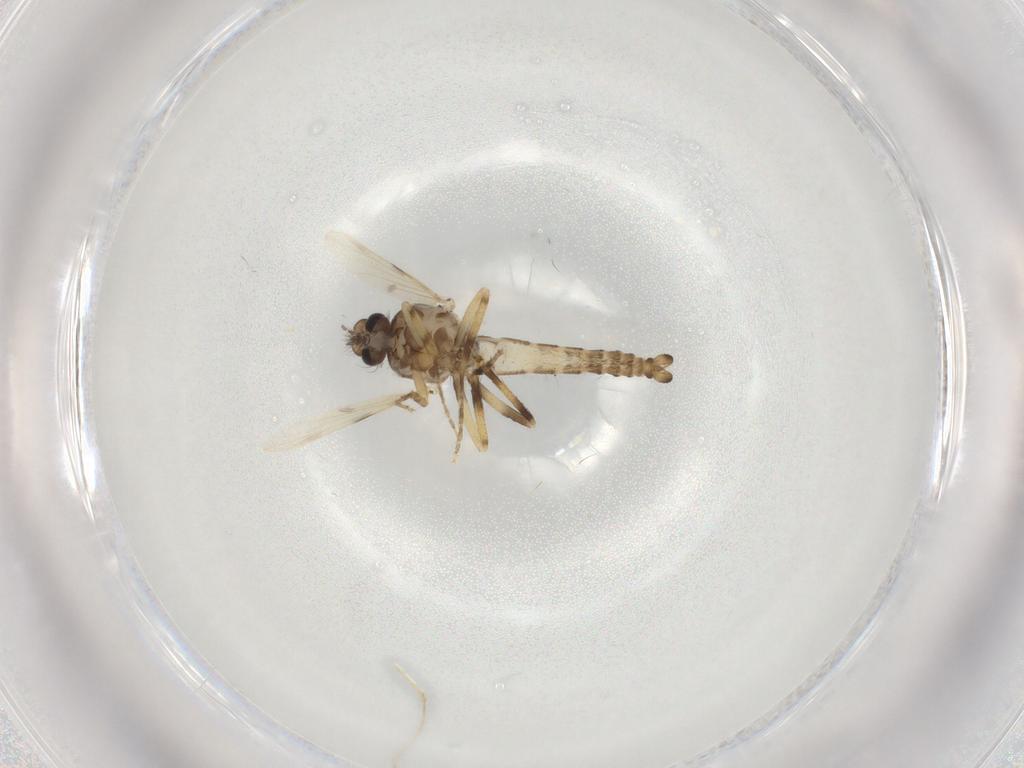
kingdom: Animalia
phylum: Arthropoda
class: Insecta
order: Diptera
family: Ceratopogonidae
